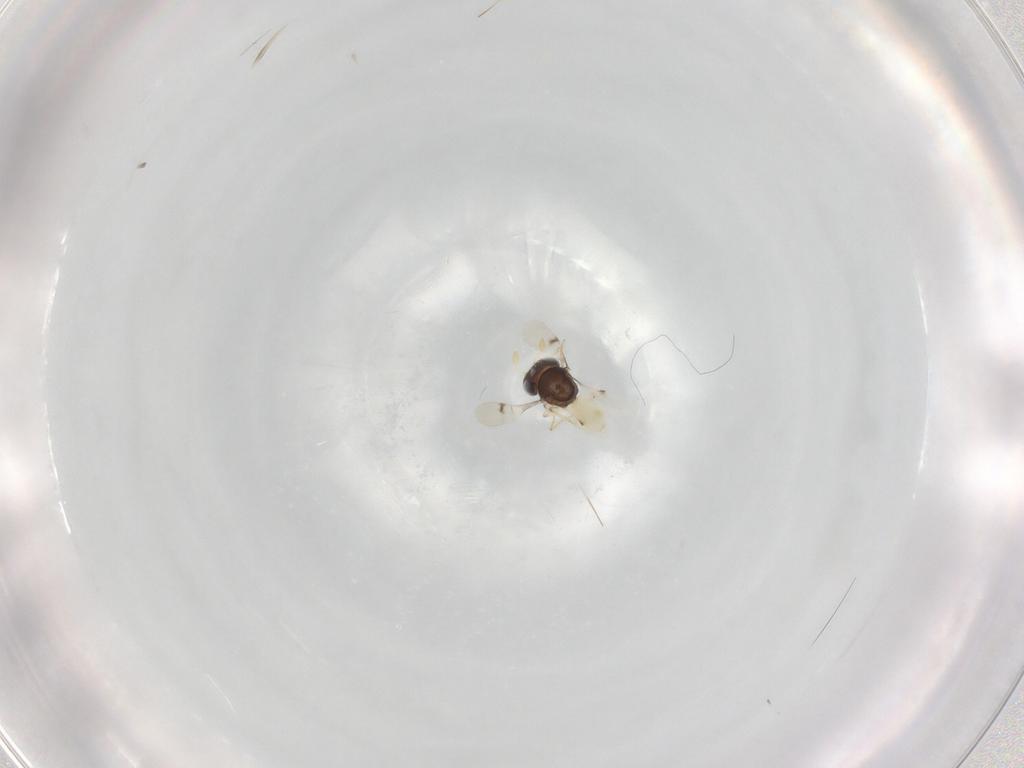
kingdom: Animalia
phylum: Arthropoda
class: Insecta
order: Hymenoptera
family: Scelionidae
